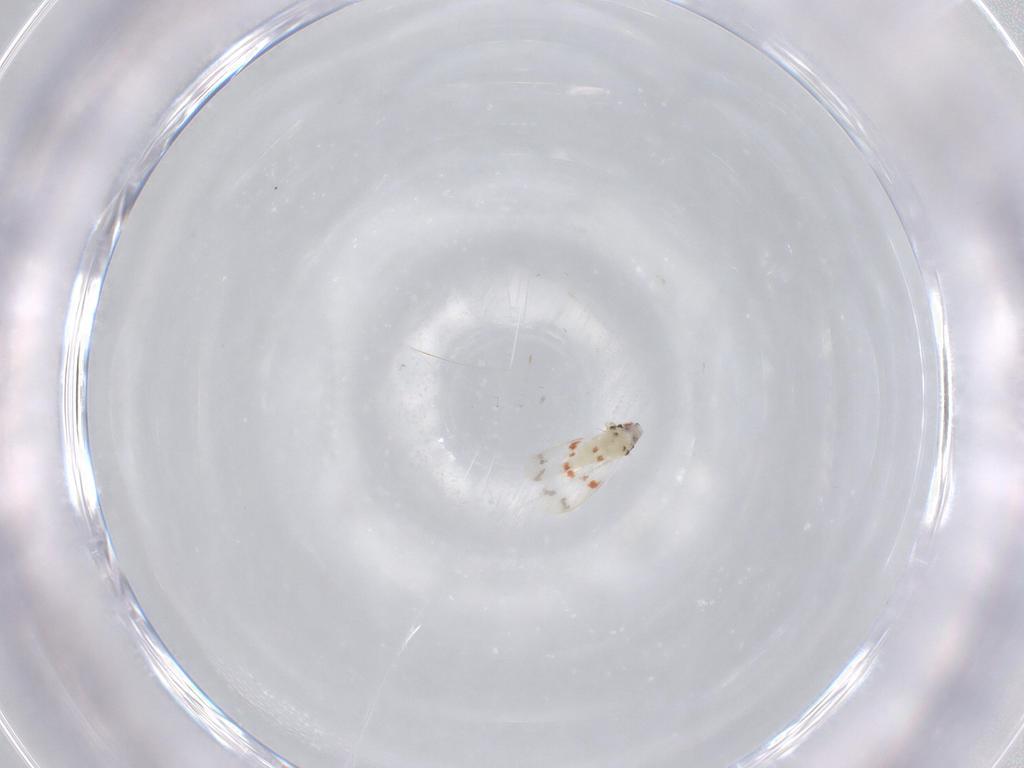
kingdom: Animalia
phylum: Arthropoda
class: Insecta
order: Hemiptera
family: Aleyrodidae
